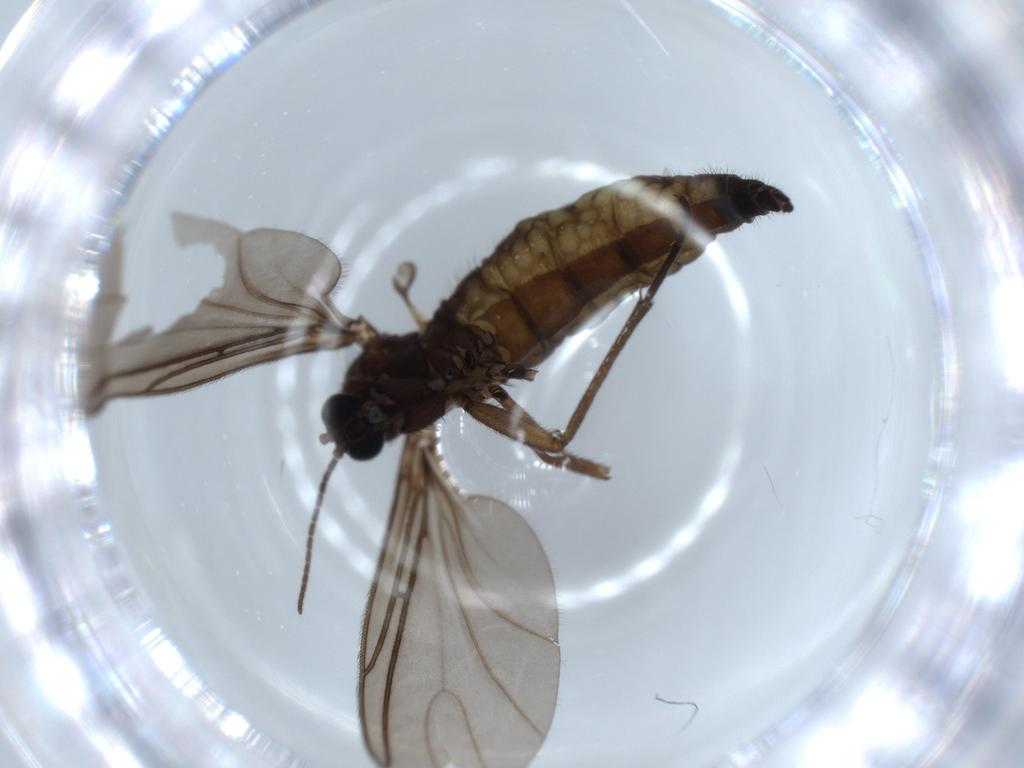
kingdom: Animalia
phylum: Arthropoda
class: Insecta
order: Diptera
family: Sciaridae
